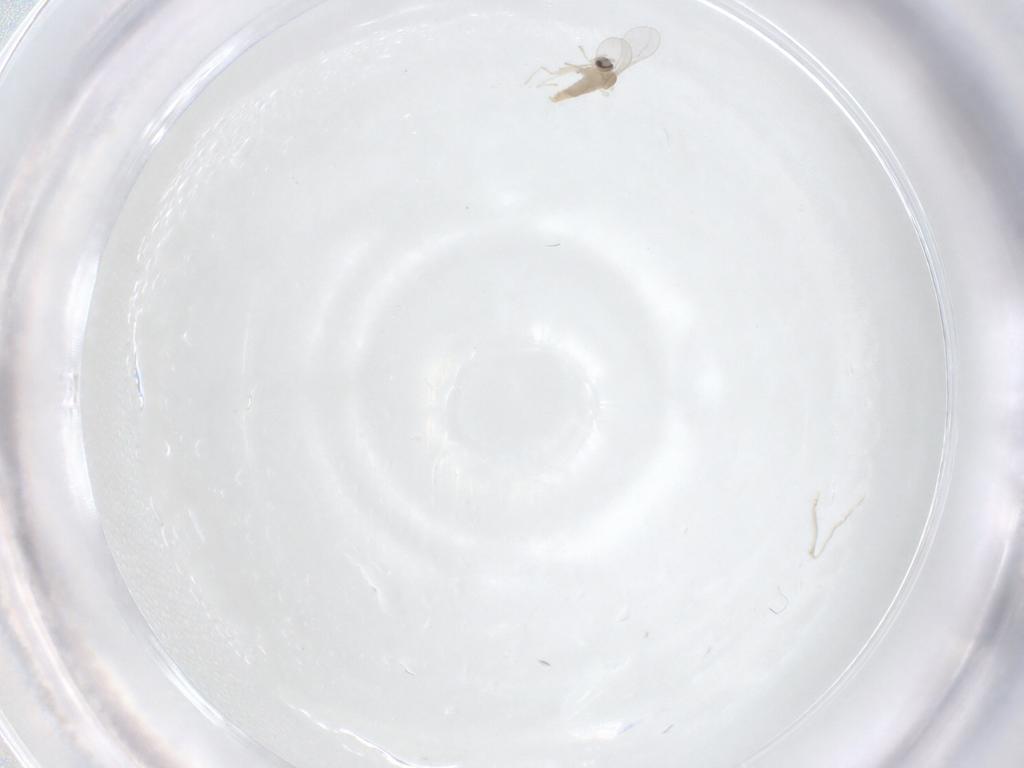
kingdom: Animalia
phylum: Arthropoda
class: Insecta
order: Diptera
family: Cecidomyiidae
